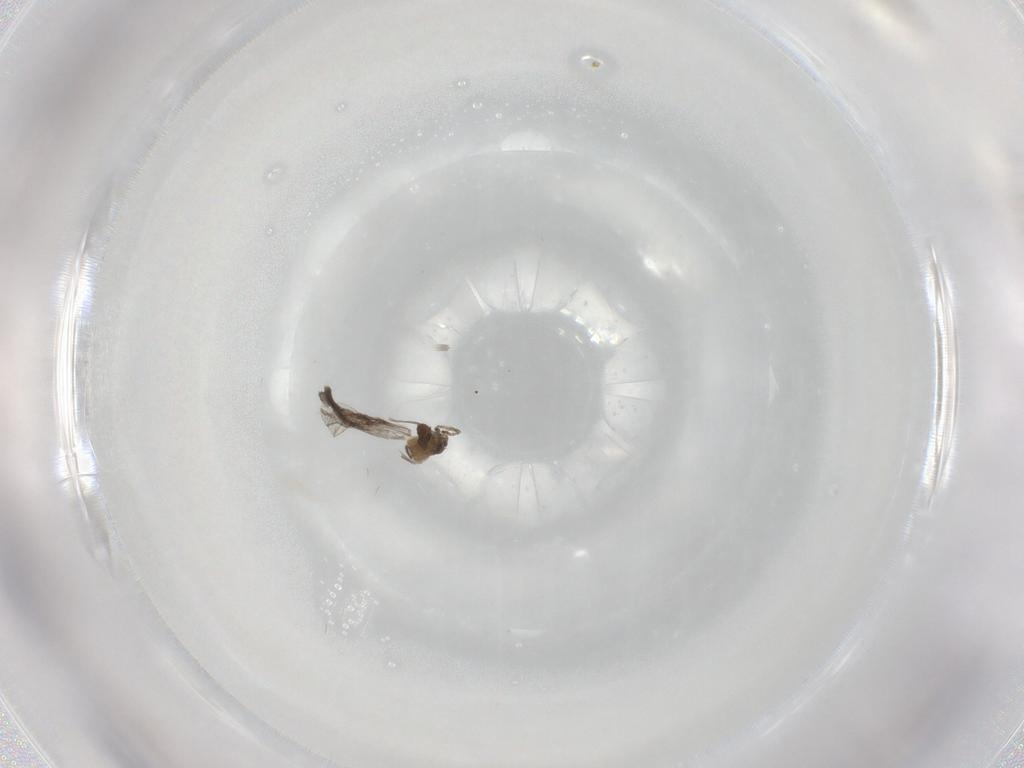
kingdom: Animalia
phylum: Arthropoda
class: Insecta
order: Diptera
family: Cecidomyiidae
